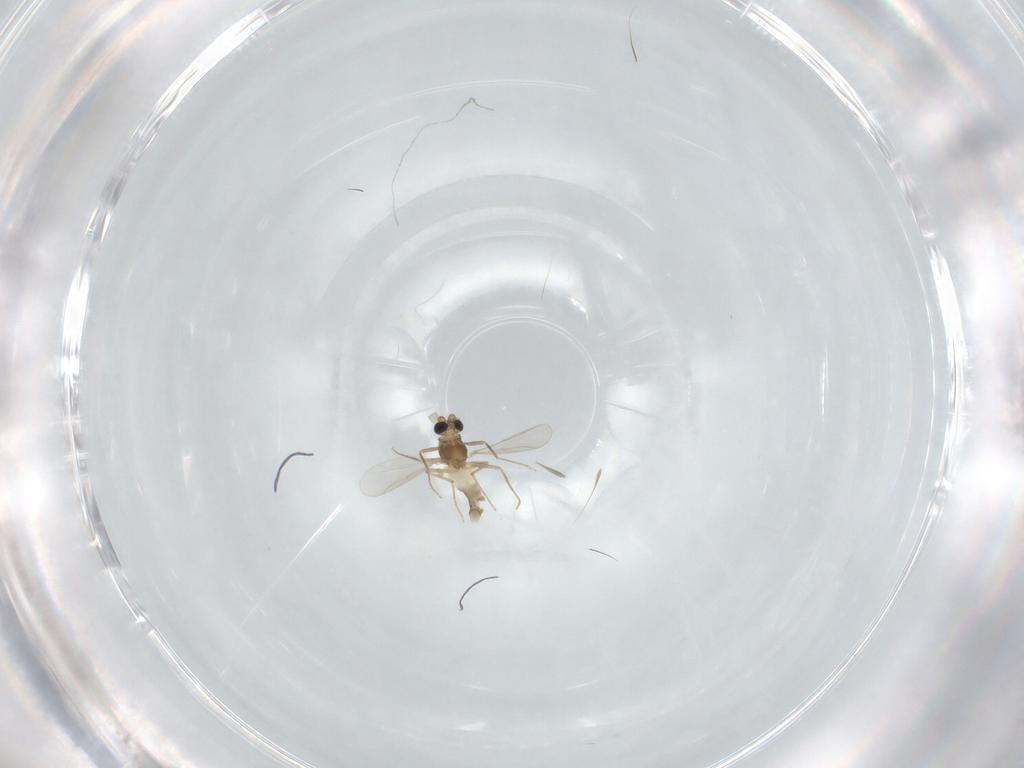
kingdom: Animalia
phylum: Arthropoda
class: Insecta
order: Diptera
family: Chironomidae
